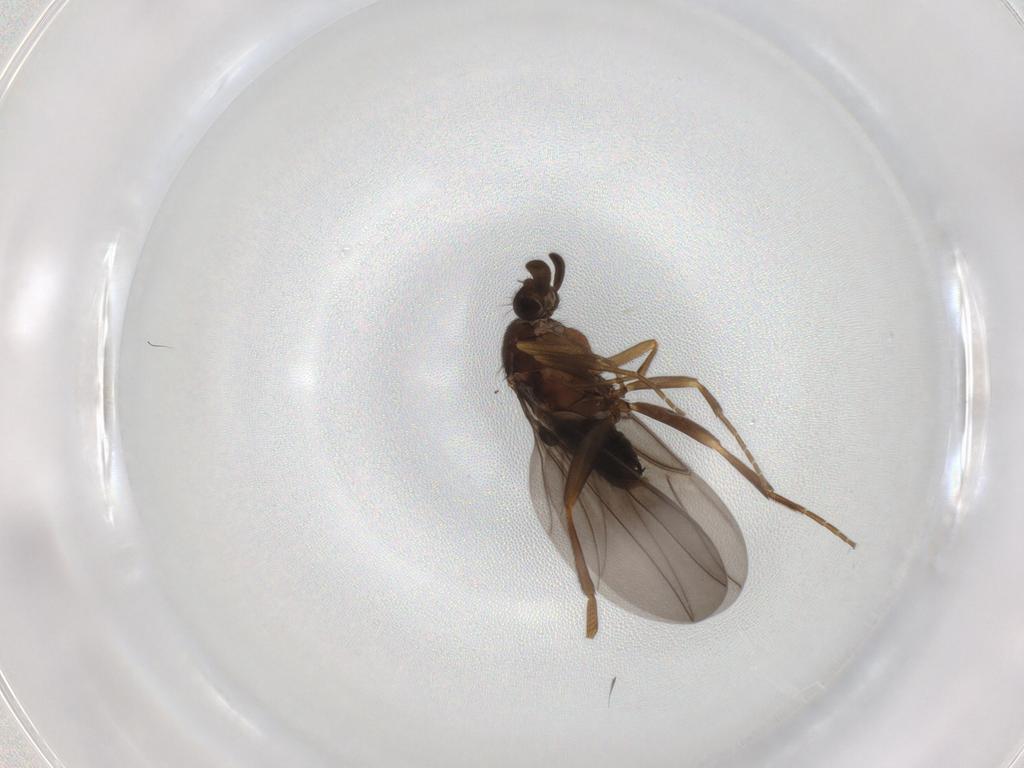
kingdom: Animalia
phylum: Arthropoda
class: Insecta
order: Diptera
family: Phoridae
